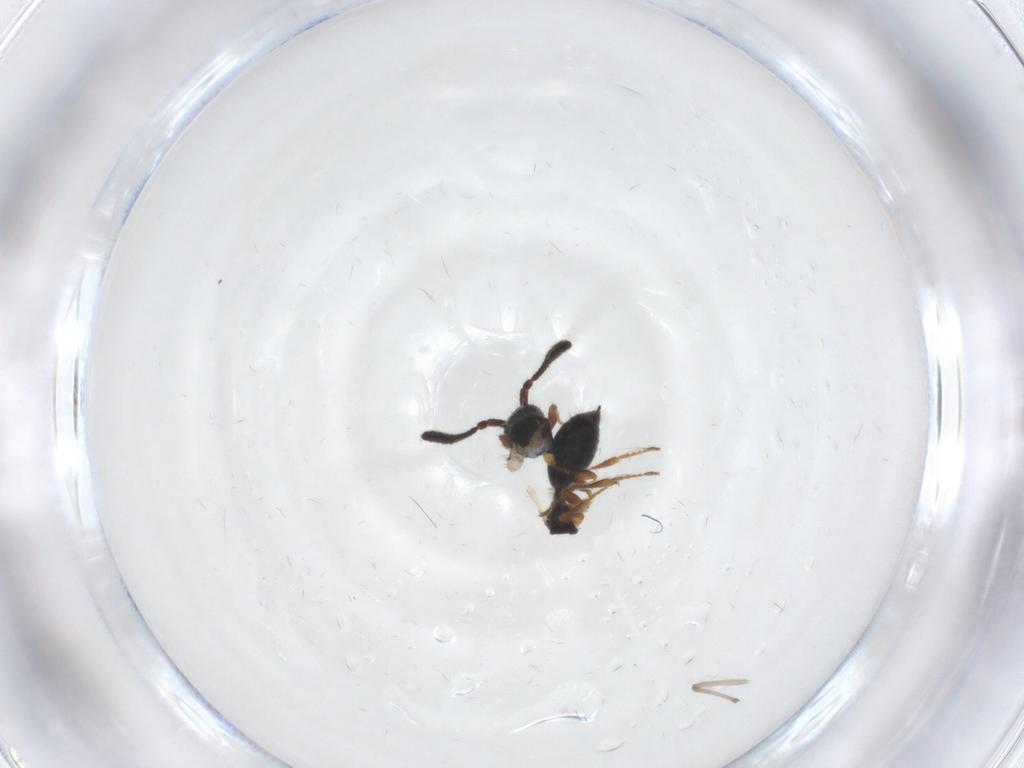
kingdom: Animalia
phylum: Arthropoda
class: Insecta
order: Hymenoptera
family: Diapriidae
